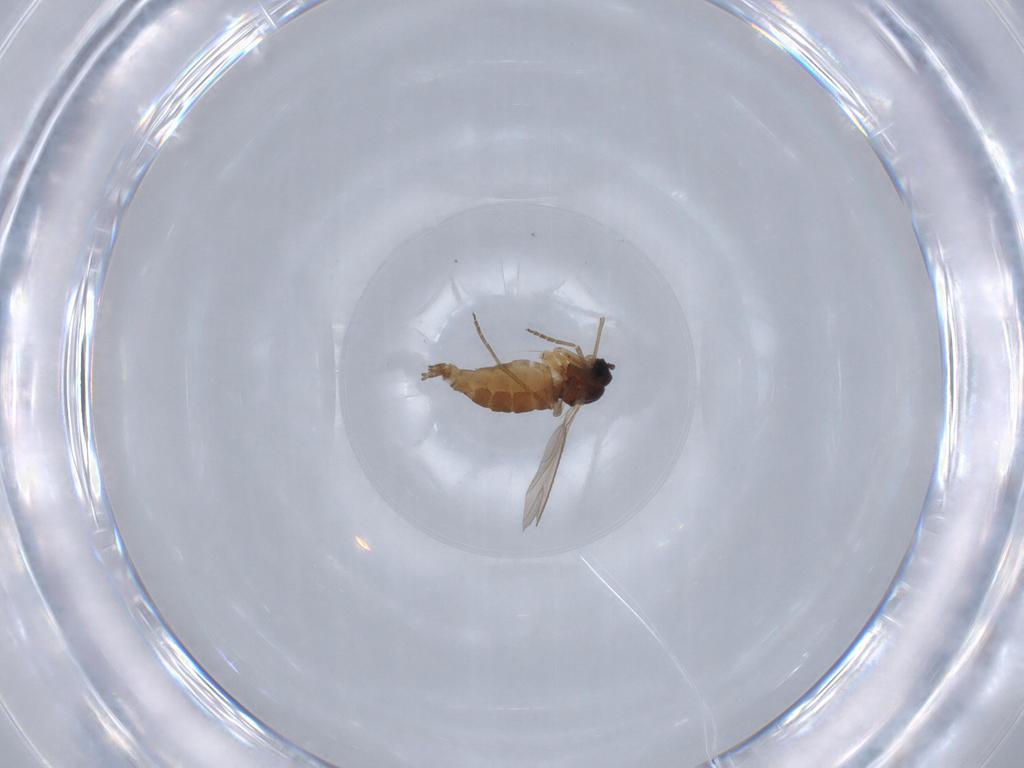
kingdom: Animalia
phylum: Arthropoda
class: Insecta
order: Diptera
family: Sciaridae
